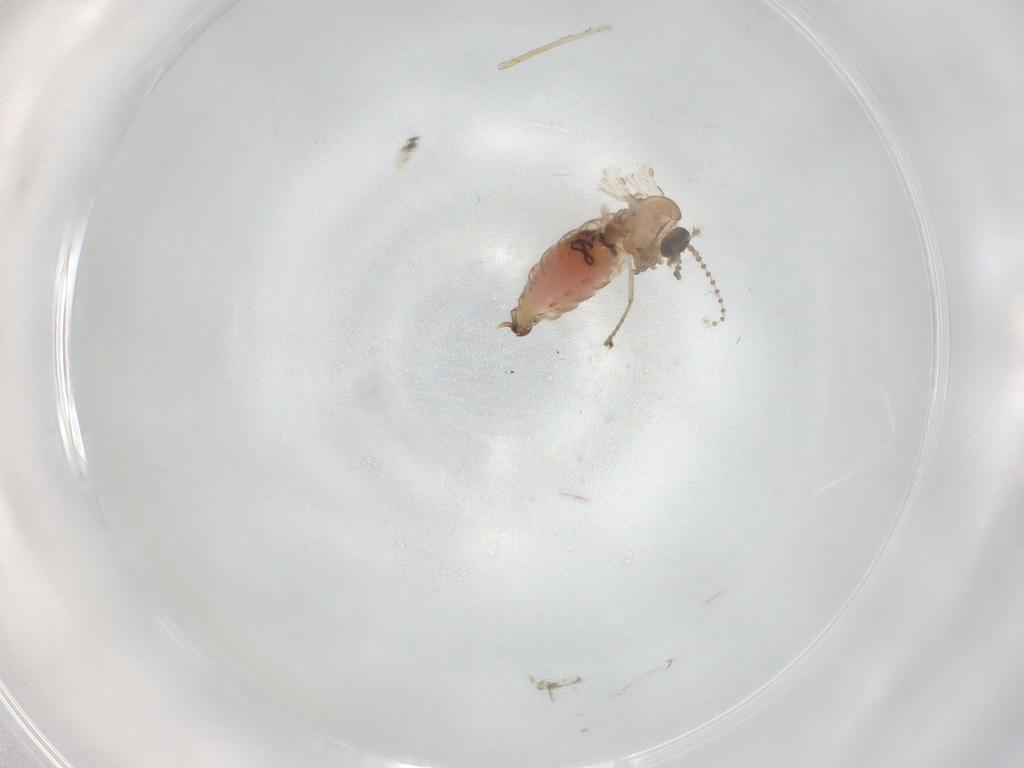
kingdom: Animalia
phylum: Arthropoda
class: Insecta
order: Diptera
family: Psychodidae
